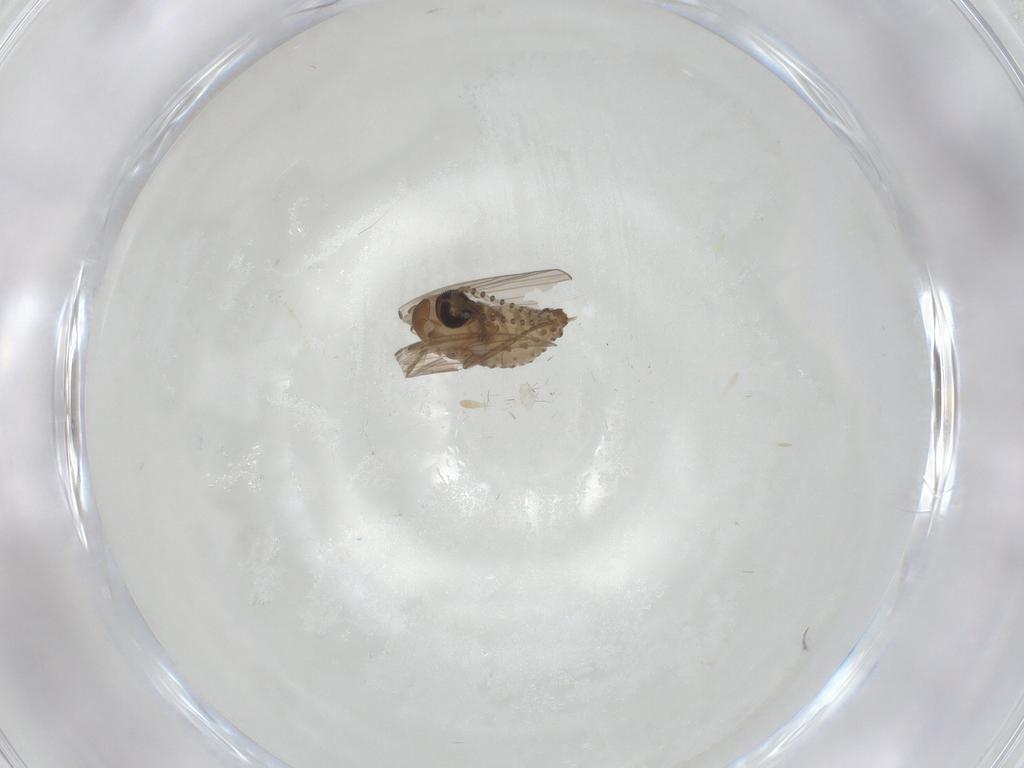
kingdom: Animalia
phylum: Arthropoda
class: Insecta
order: Diptera
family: Psychodidae
